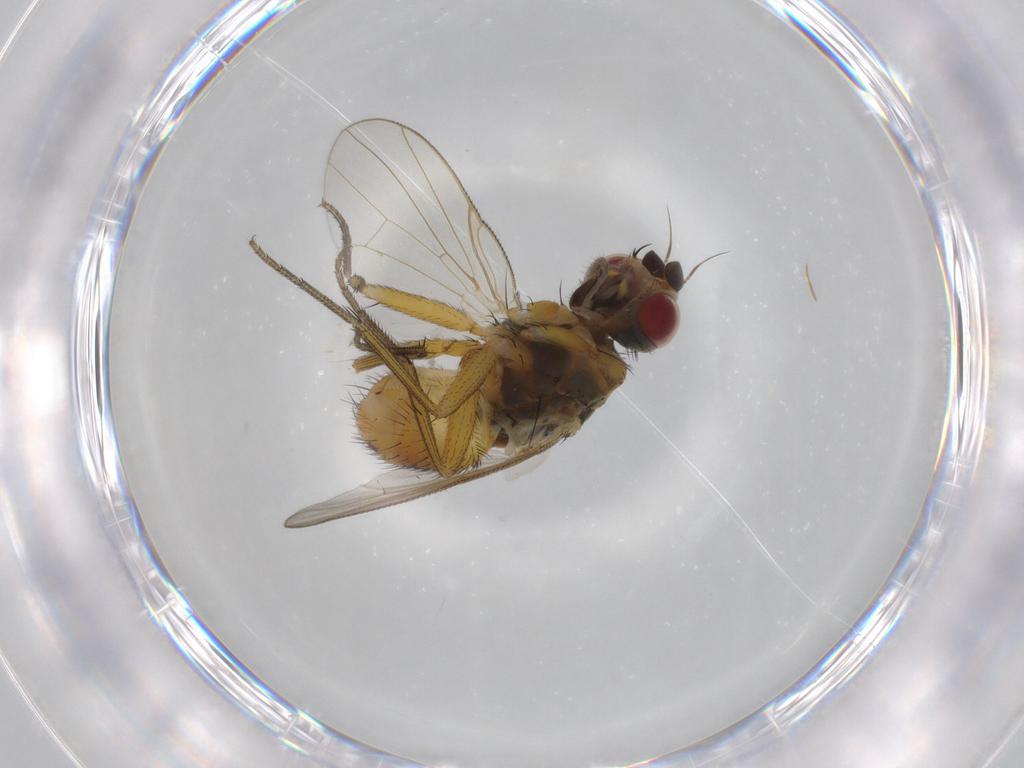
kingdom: Animalia
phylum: Arthropoda
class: Insecta
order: Diptera
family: Muscidae
